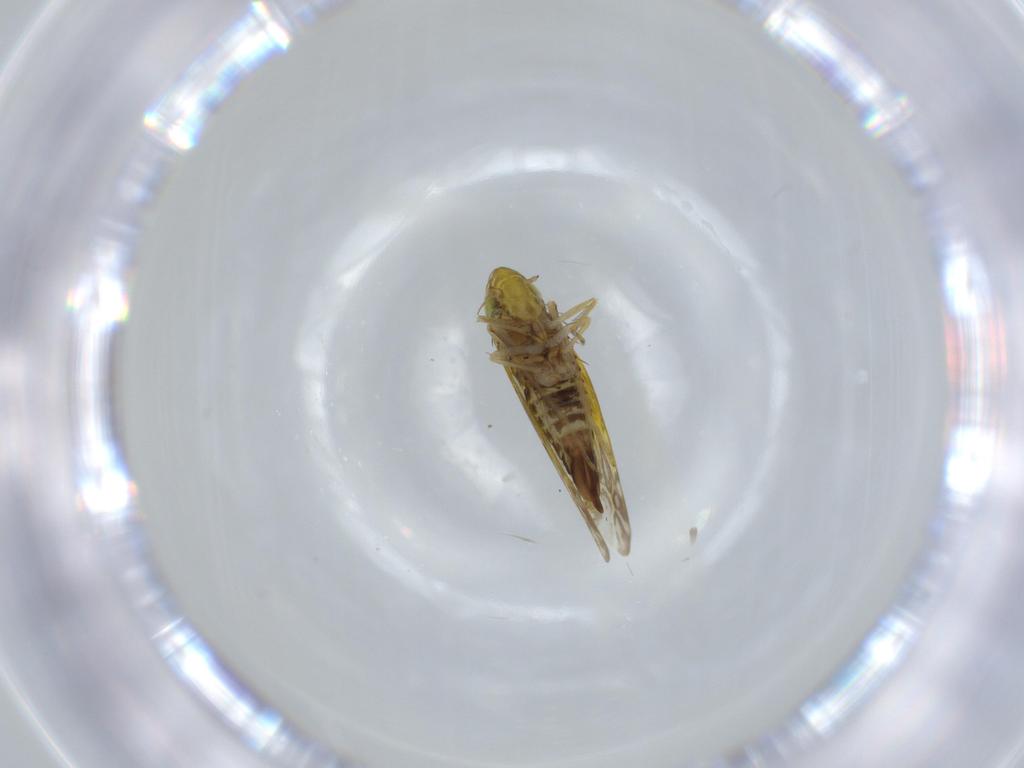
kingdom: Animalia
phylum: Arthropoda
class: Insecta
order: Hemiptera
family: Cicadellidae
